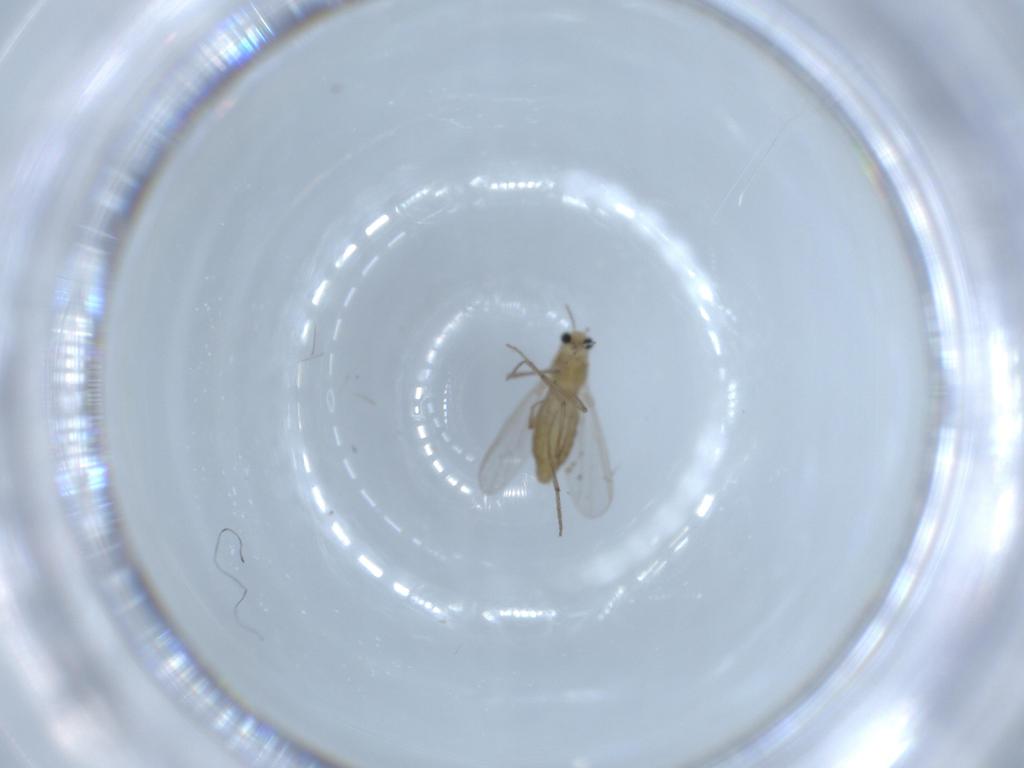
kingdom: Animalia
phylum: Arthropoda
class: Insecta
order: Diptera
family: Chironomidae
